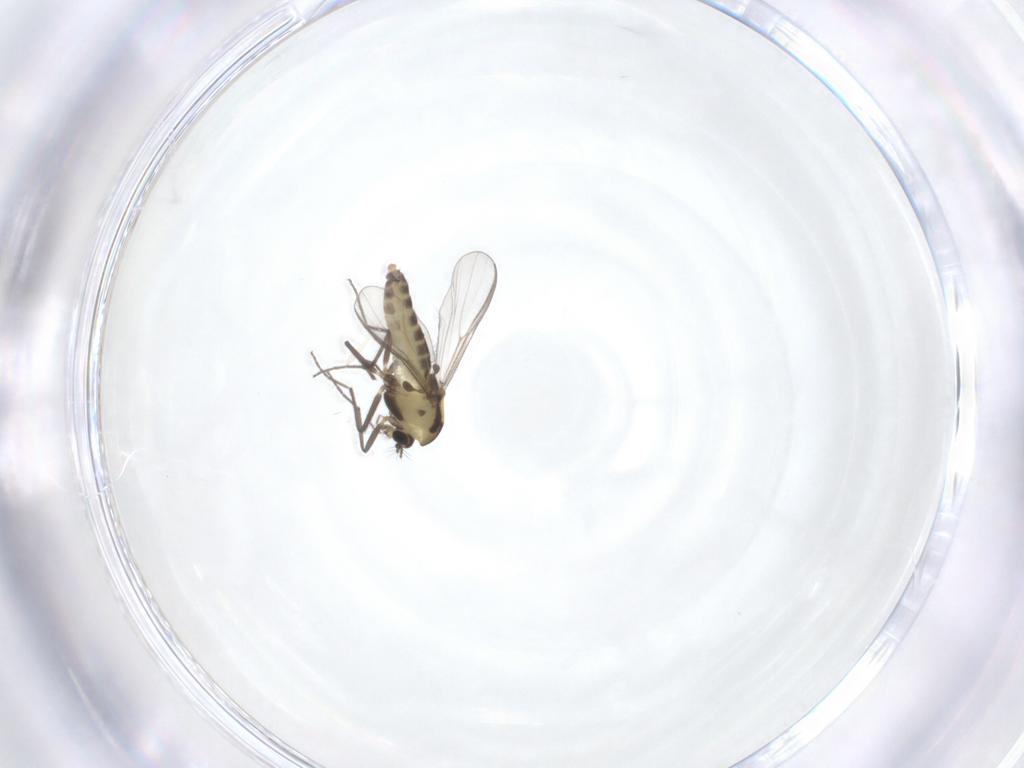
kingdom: Animalia
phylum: Arthropoda
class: Insecta
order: Diptera
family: Chironomidae
